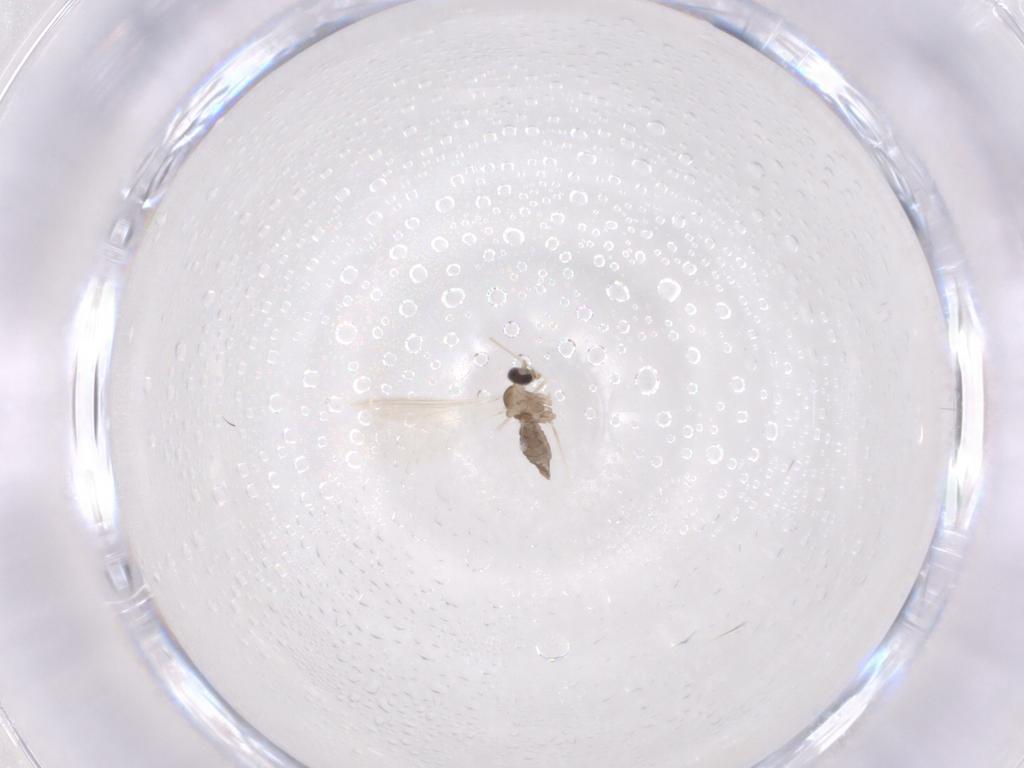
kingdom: Animalia
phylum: Arthropoda
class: Insecta
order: Diptera
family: Cecidomyiidae
